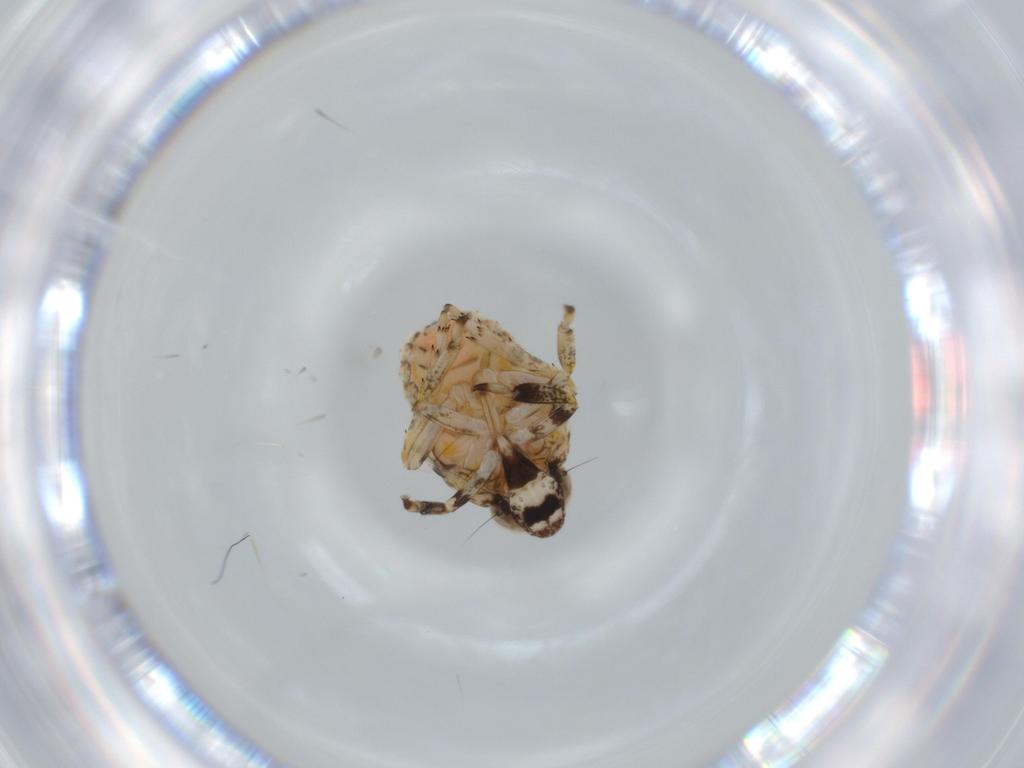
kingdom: Animalia
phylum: Arthropoda
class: Insecta
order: Hemiptera
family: Issidae
